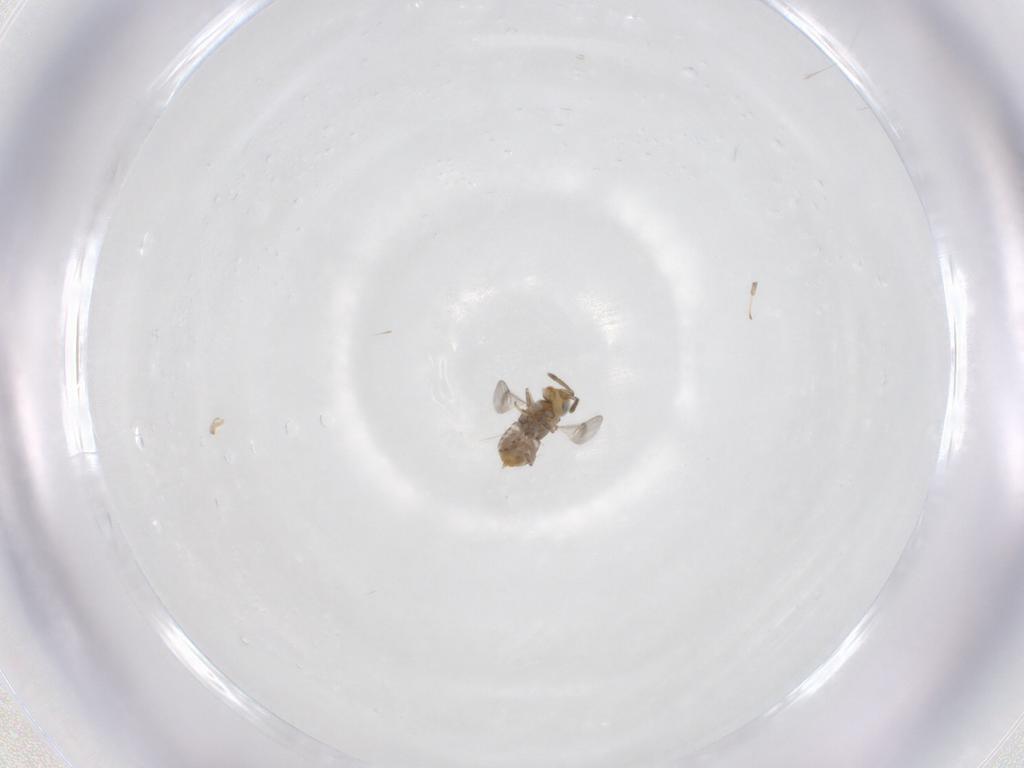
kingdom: Animalia
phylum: Arthropoda
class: Insecta
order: Hymenoptera
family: Encyrtidae
